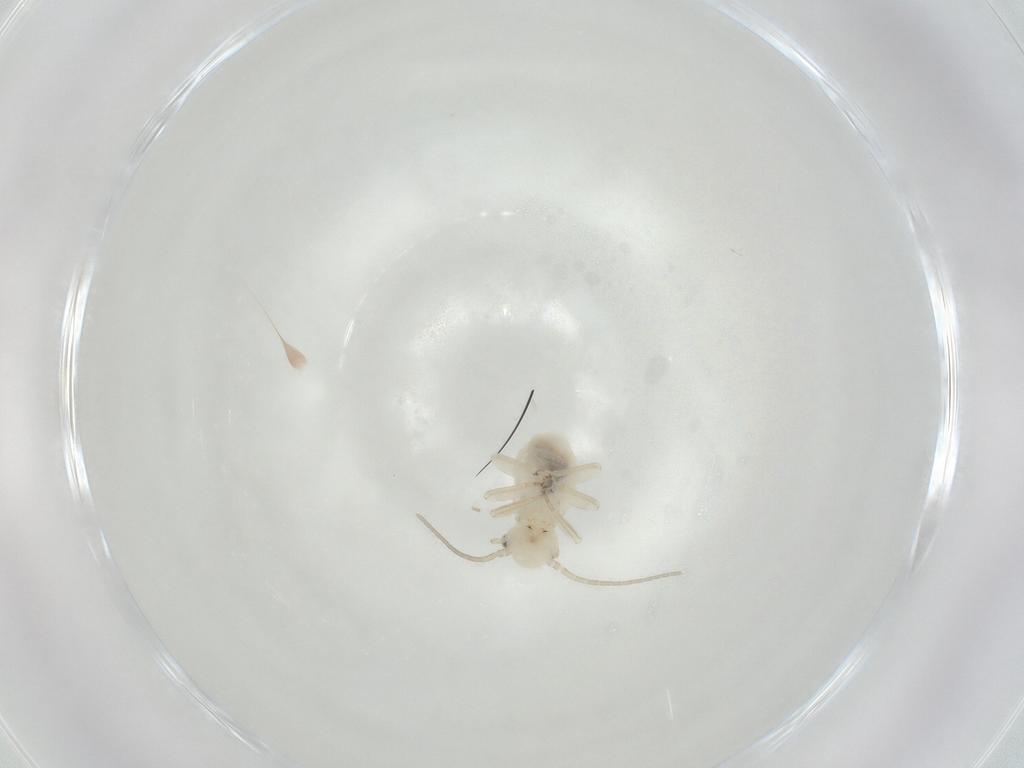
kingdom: Animalia
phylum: Arthropoda
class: Insecta
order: Psocodea
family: Caeciliusidae
